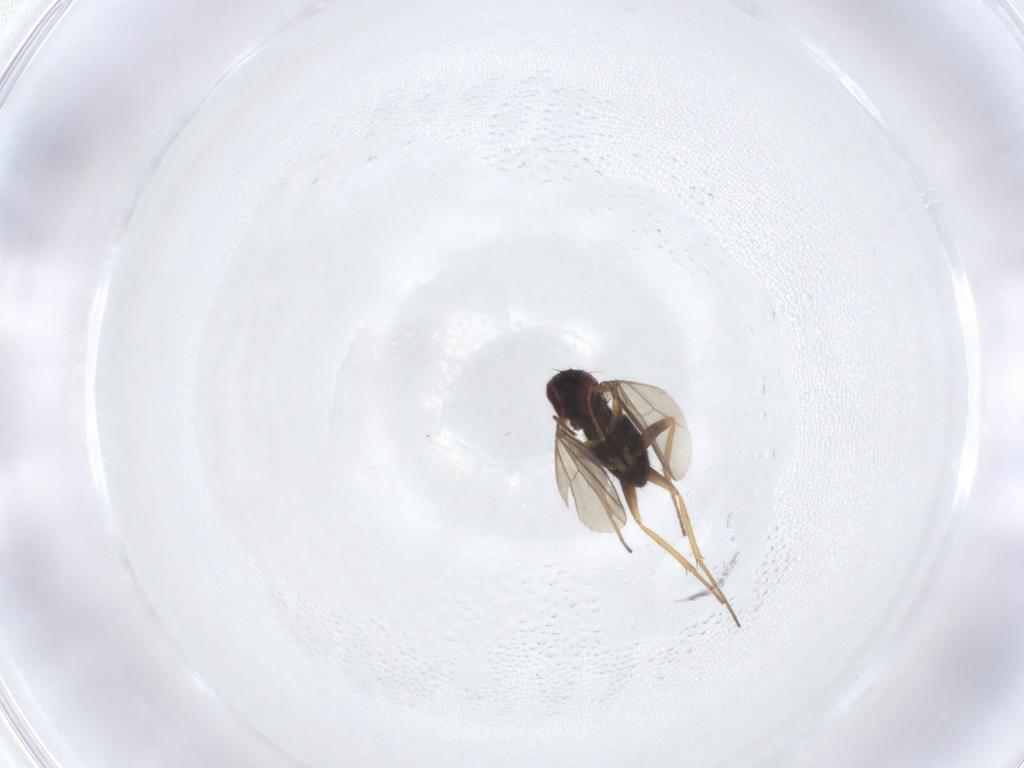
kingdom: Animalia
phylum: Arthropoda
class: Insecta
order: Diptera
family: Dolichopodidae
